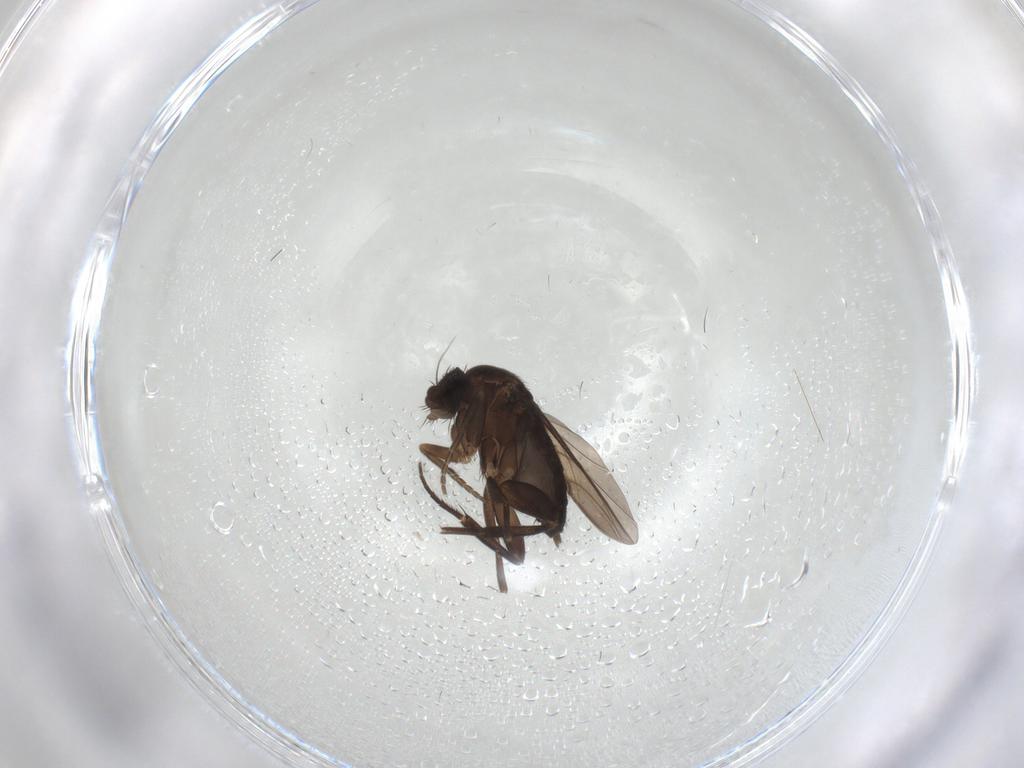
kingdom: Animalia
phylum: Arthropoda
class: Insecta
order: Diptera
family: Phoridae
